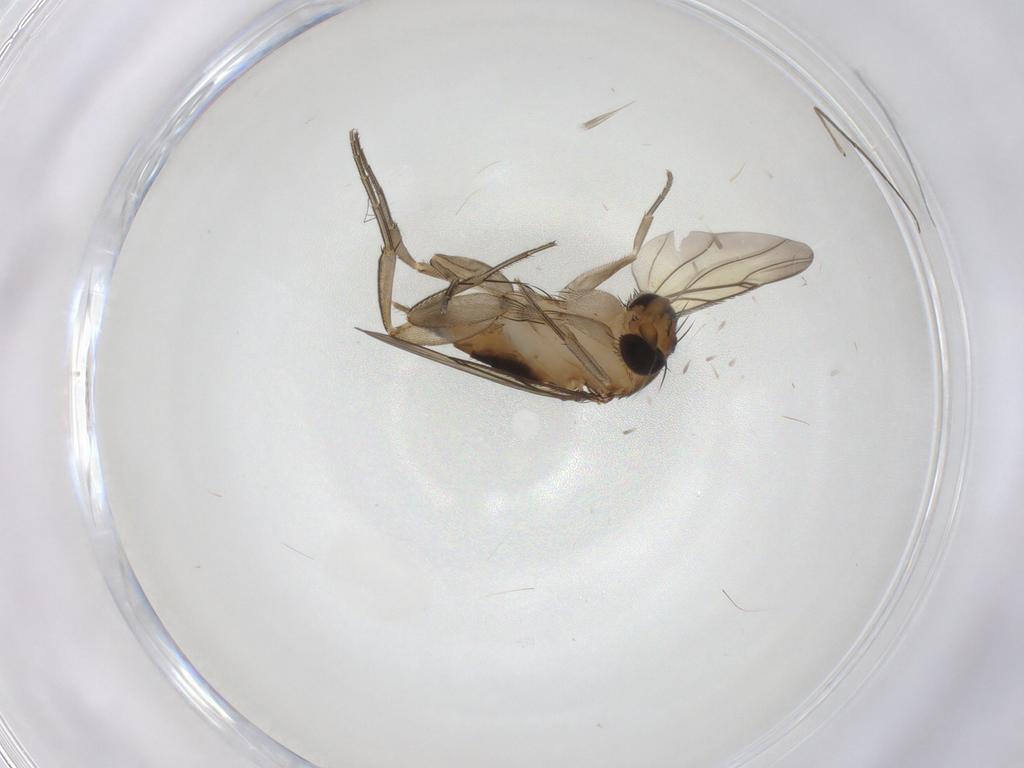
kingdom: Animalia
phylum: Arthropoda
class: Insecta
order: Diptera
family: Phoridae
